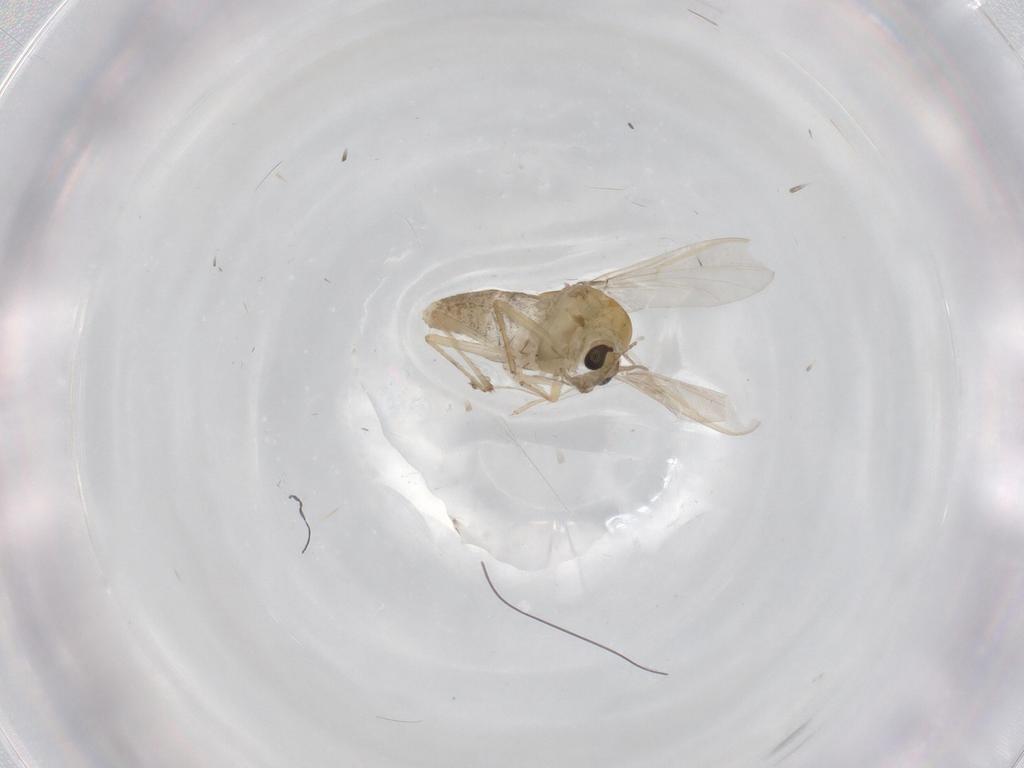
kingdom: Animalia
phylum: Arthropoda
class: Insecta
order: Diptera
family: Chironomidae
